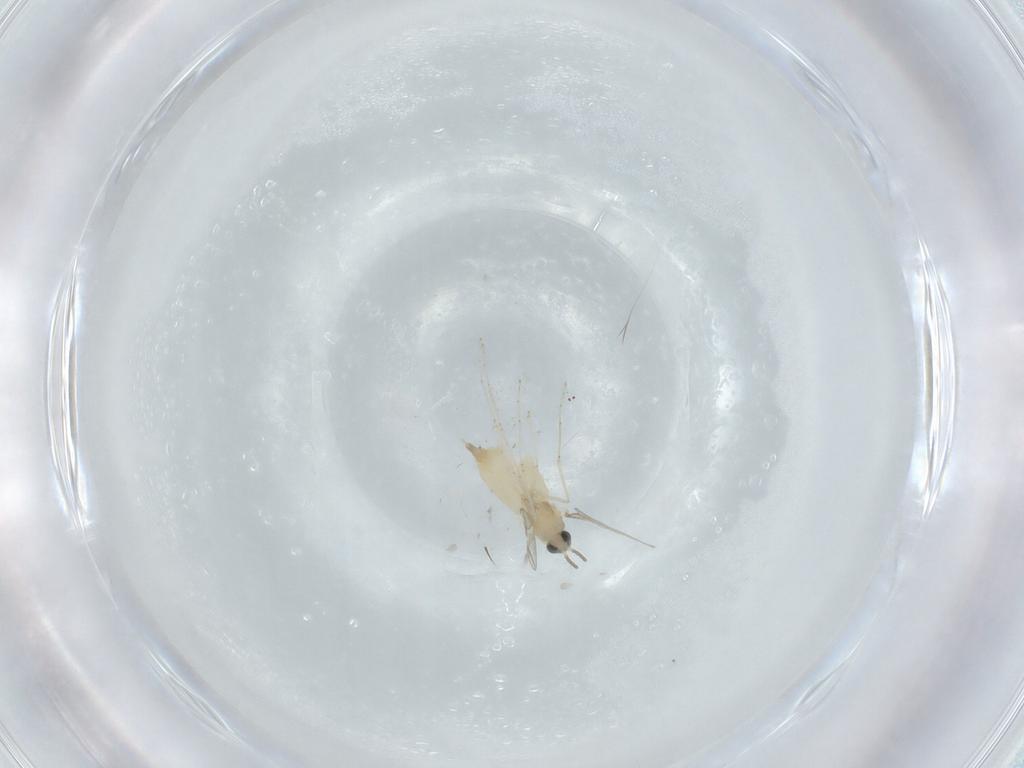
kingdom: Animalia
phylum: Arthropoda
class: Insecta
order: Diptera
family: Cecidomyiidae
